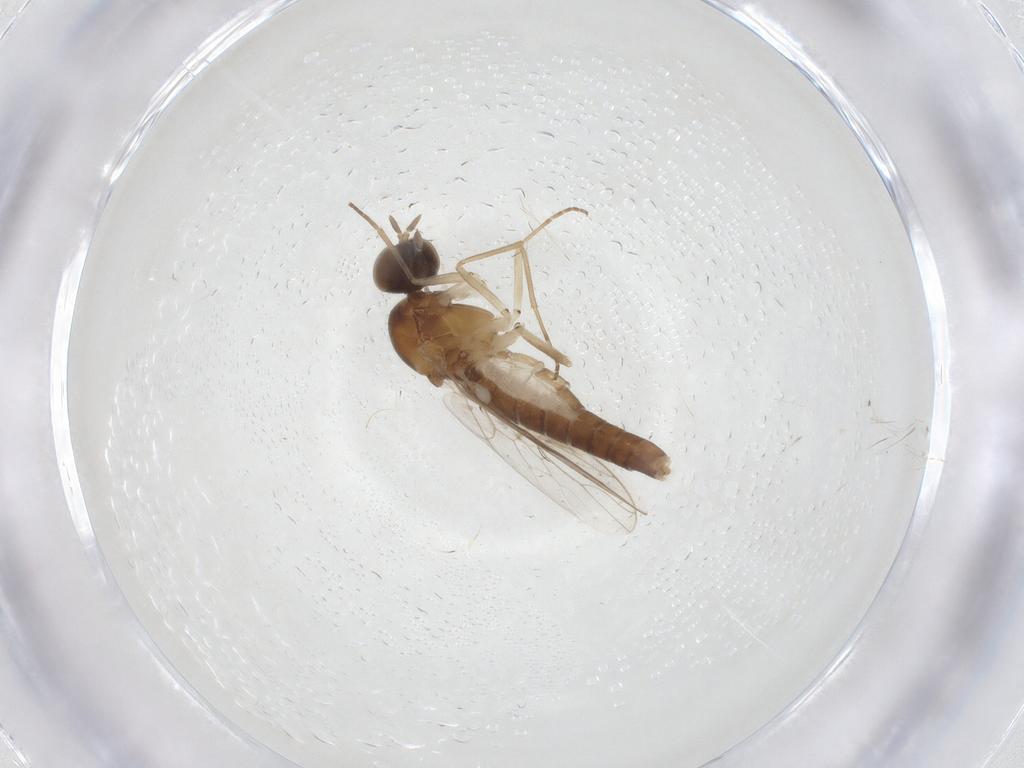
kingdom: Animalia
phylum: Arthropoda
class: Insecta
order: Diptera
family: Scenopinidae
